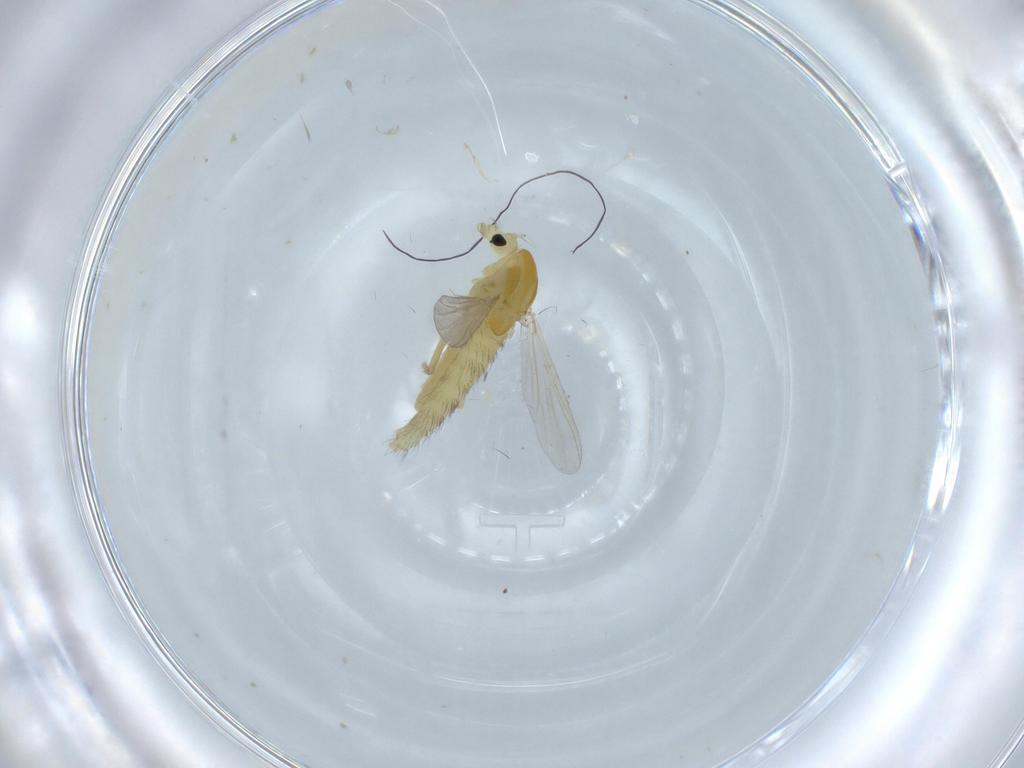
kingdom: Animalia
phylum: Arthropoda
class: Insecta
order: Diptera
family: Chironomidae
